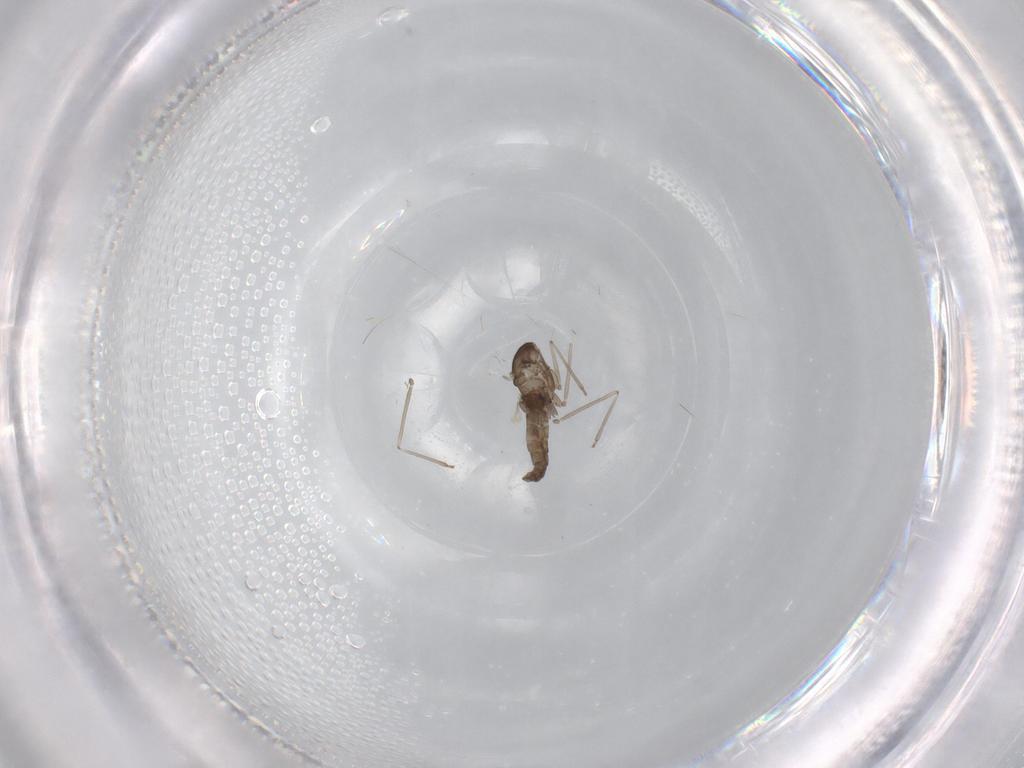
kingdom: Animalia
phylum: Arthropoda
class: Insecta
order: Diptera
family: Cecidomyiidae
